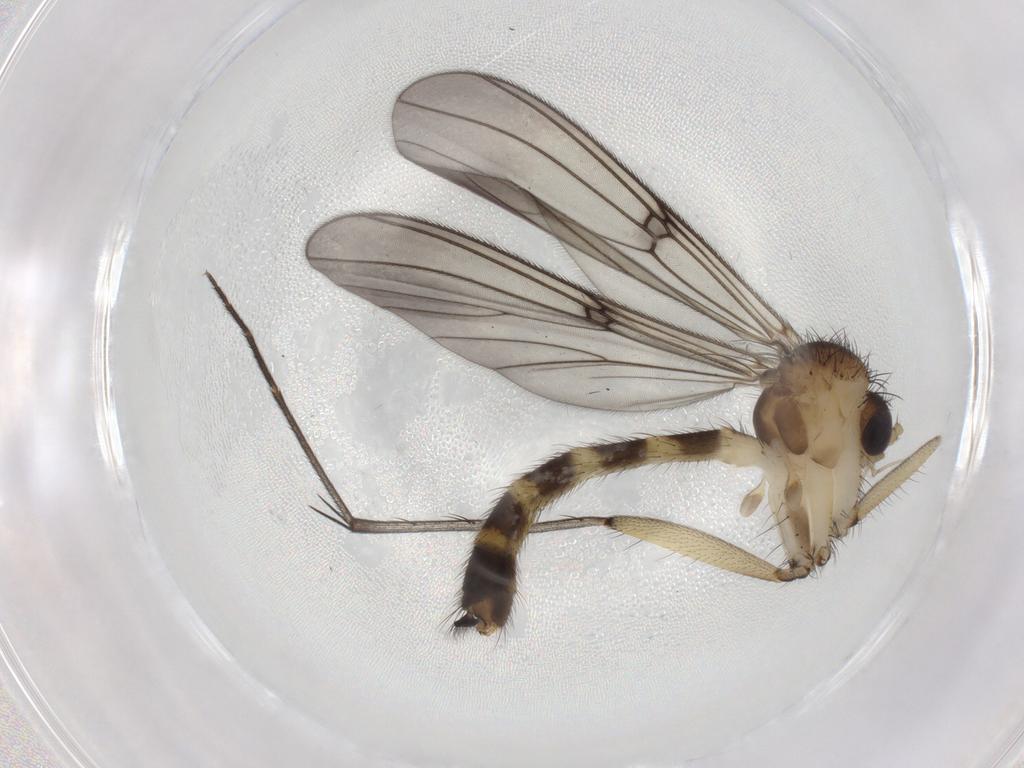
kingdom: Animalia
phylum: Arthropoda
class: Insecta
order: Diptera
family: Mycetophilidae
